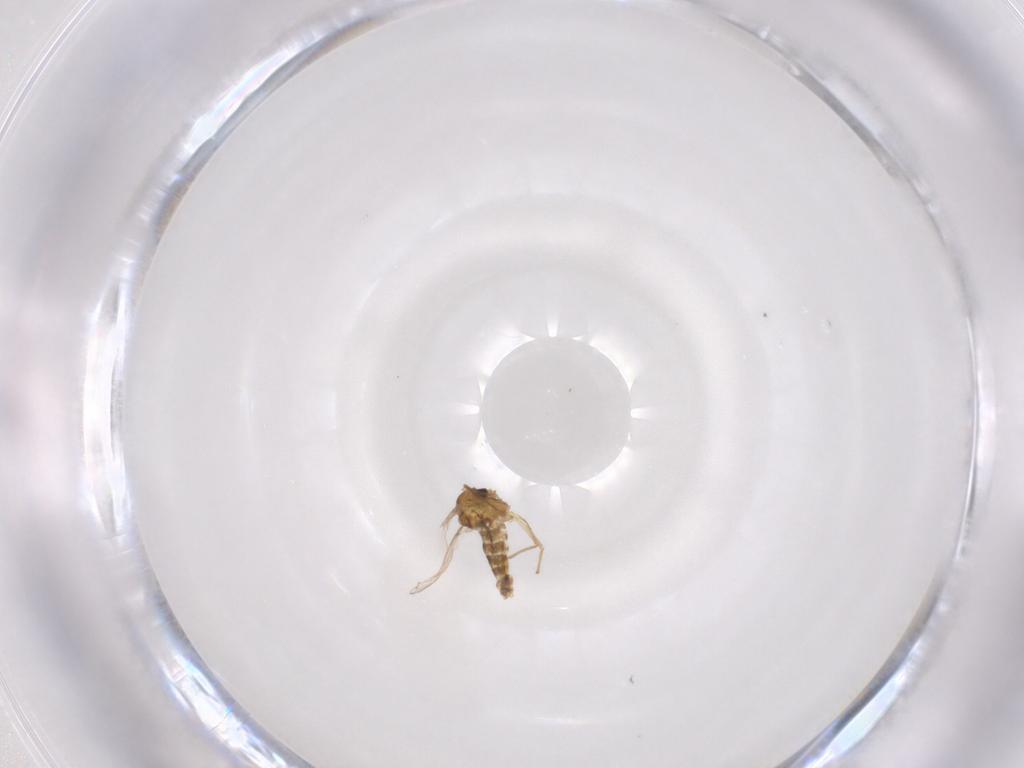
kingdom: Animalia
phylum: Arthropoda
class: Insecta
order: Diptera
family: Chironomidae
